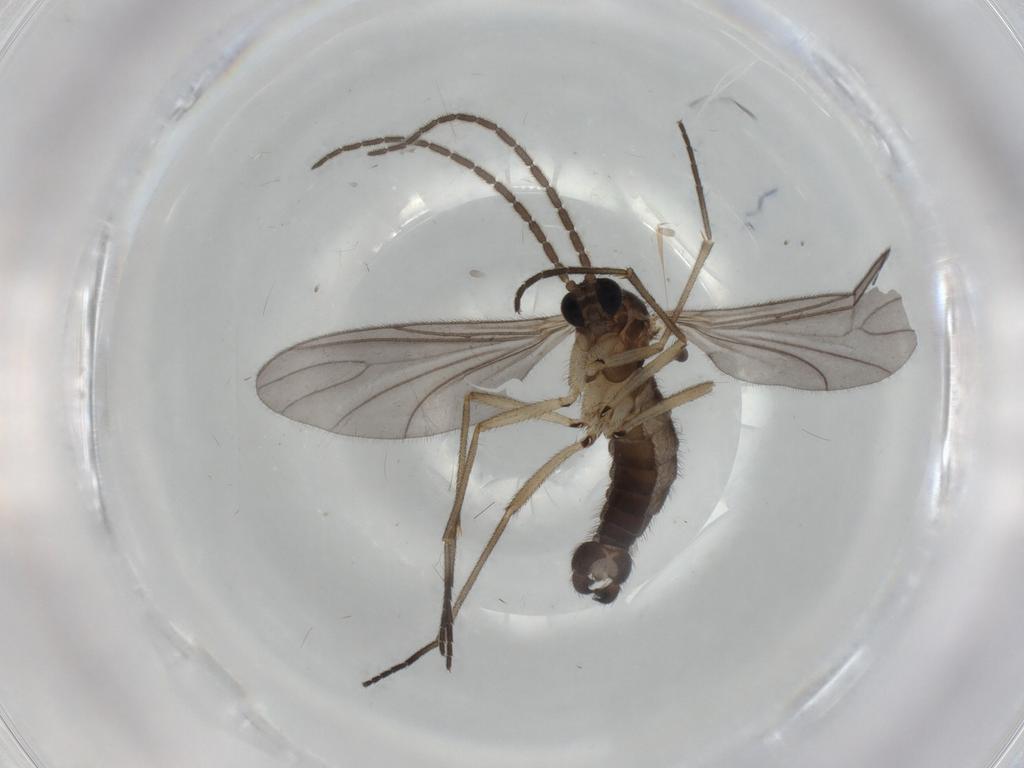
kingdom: Animalia
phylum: Arthropoda
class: Insecta
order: Diptera
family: Sciaridae
